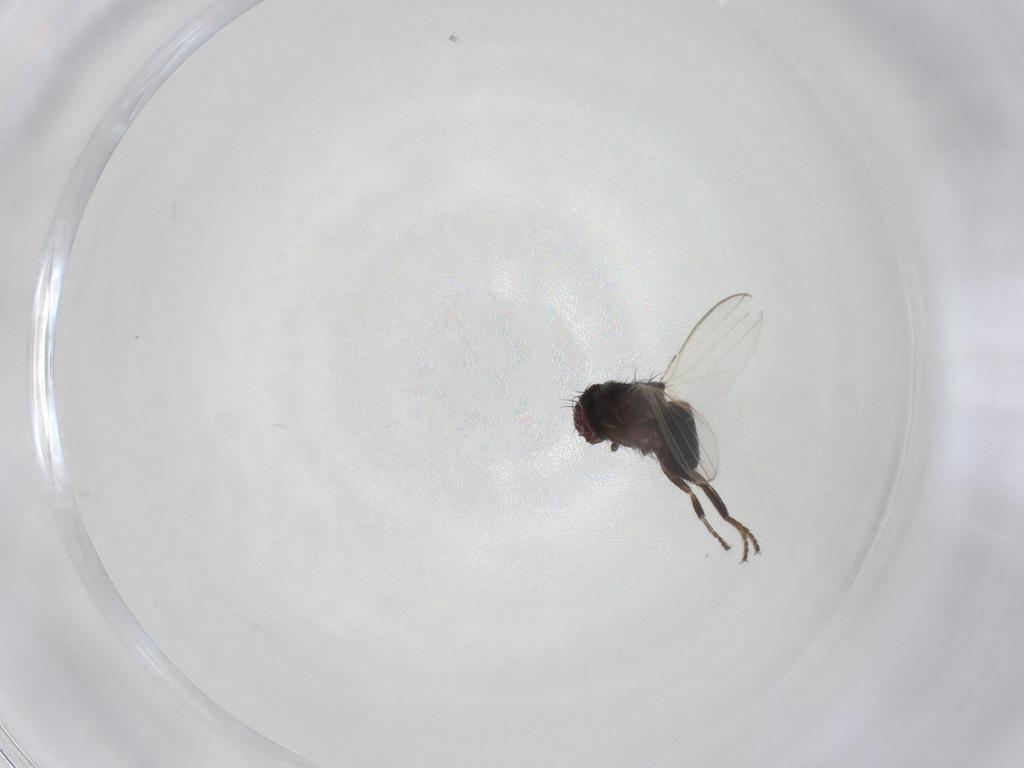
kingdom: Animalia
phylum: Arthropoda
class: Insecta
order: Diptera
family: Milichiidae
